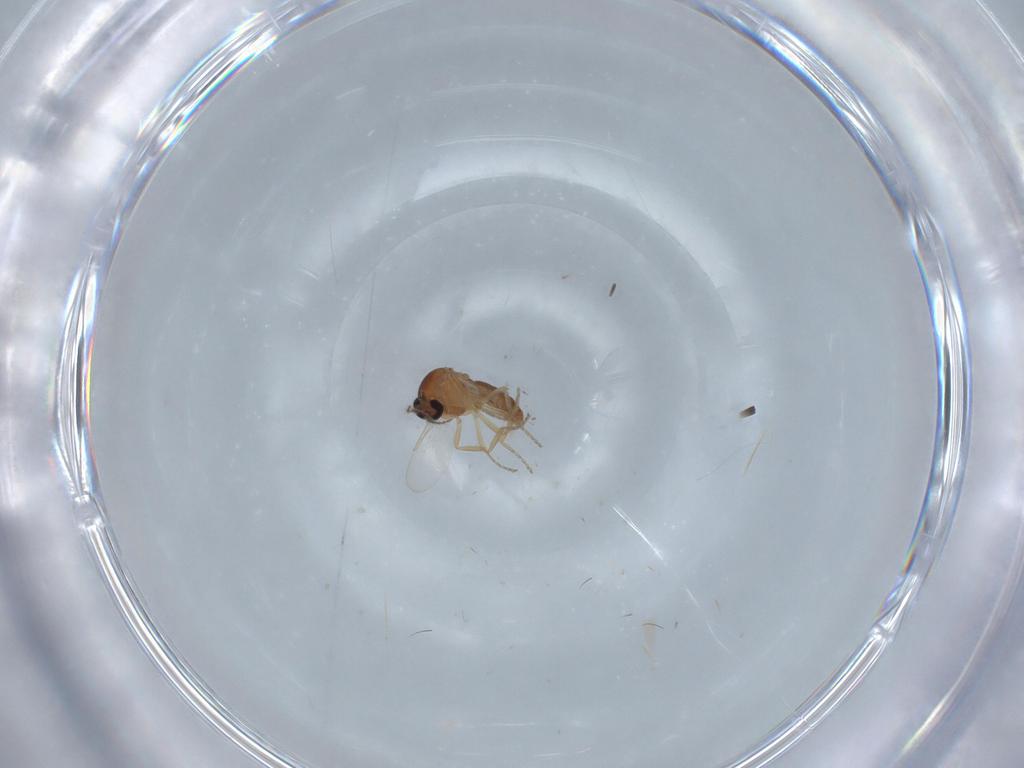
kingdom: Animalia
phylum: Arthropoda
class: Insecta
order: Diptera
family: Ceratopogonidae
